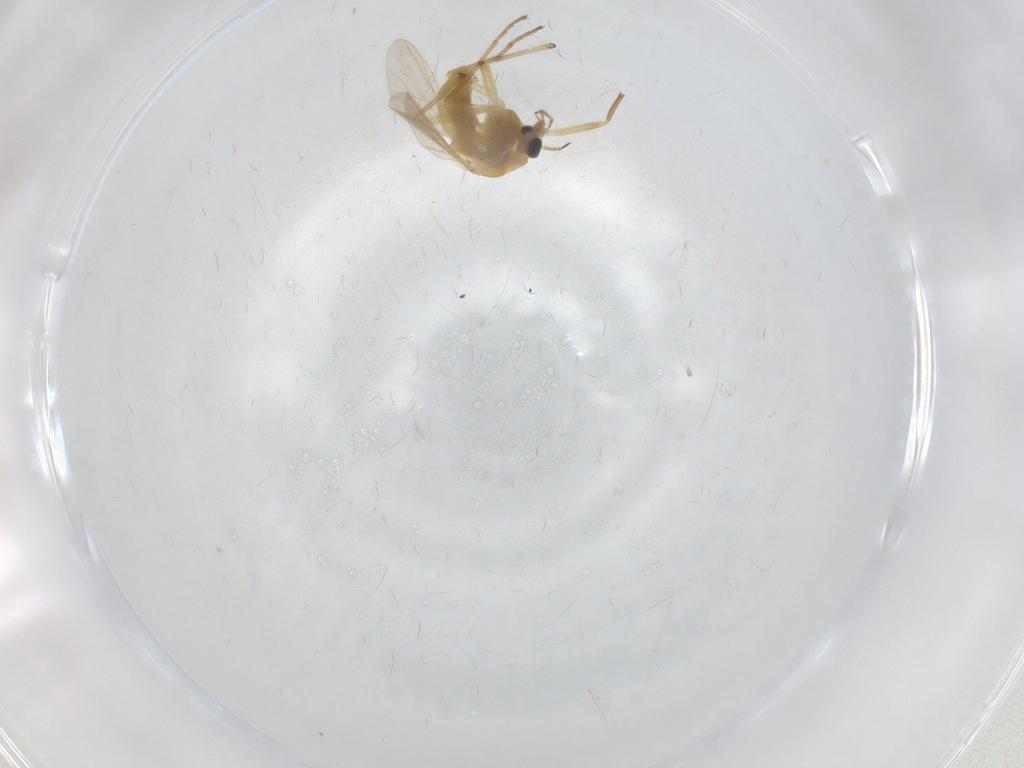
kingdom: Animalia
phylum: Arthropoda
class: Insecta
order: Diptera
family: Chironomidae
